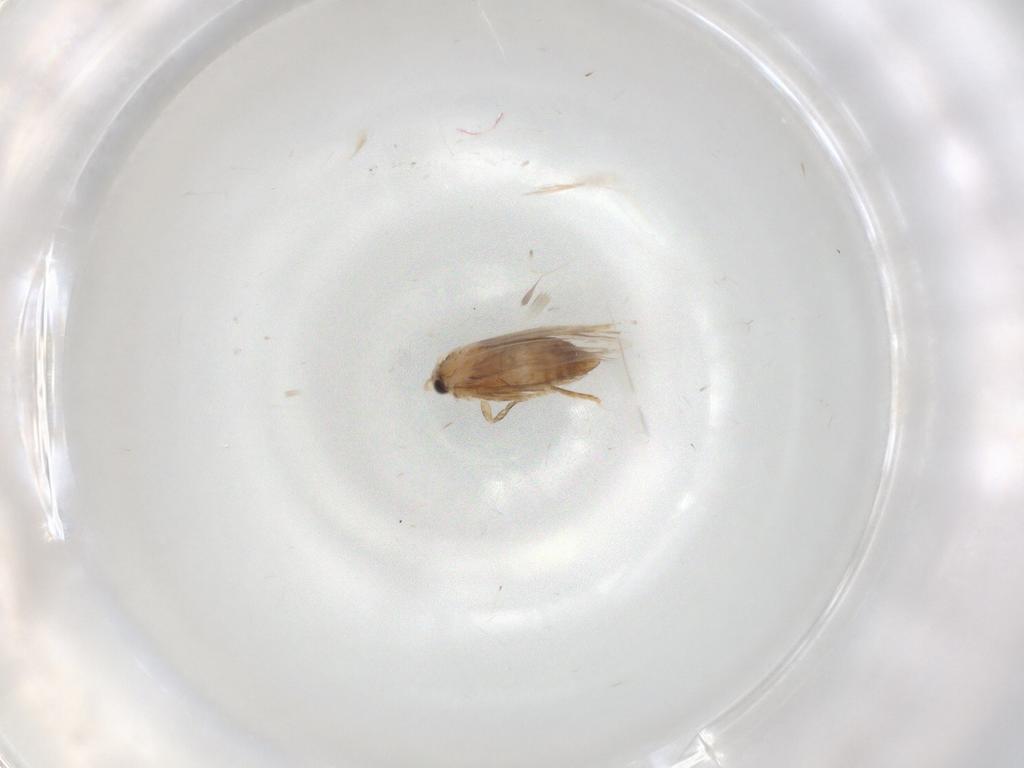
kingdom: Animalia
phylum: Arthropoda
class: Insecta
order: Lepidoptera
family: Nepticulidae
